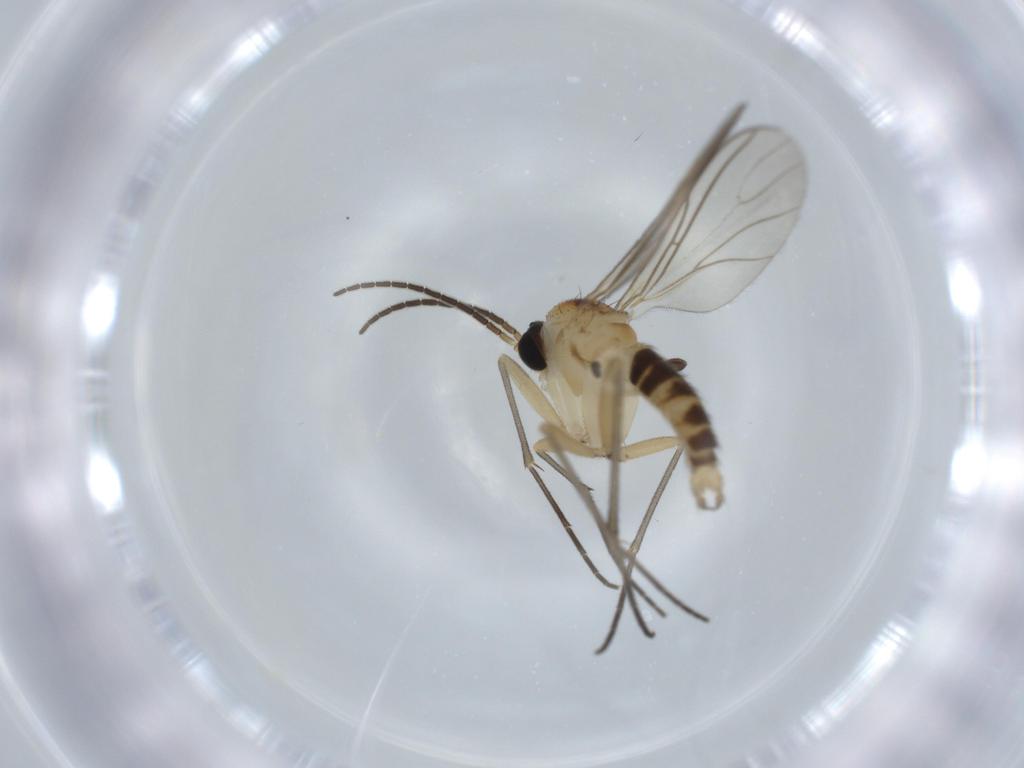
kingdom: Animalia
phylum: Arthropoda
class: Insecta
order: Diptera
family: Sciaridae
